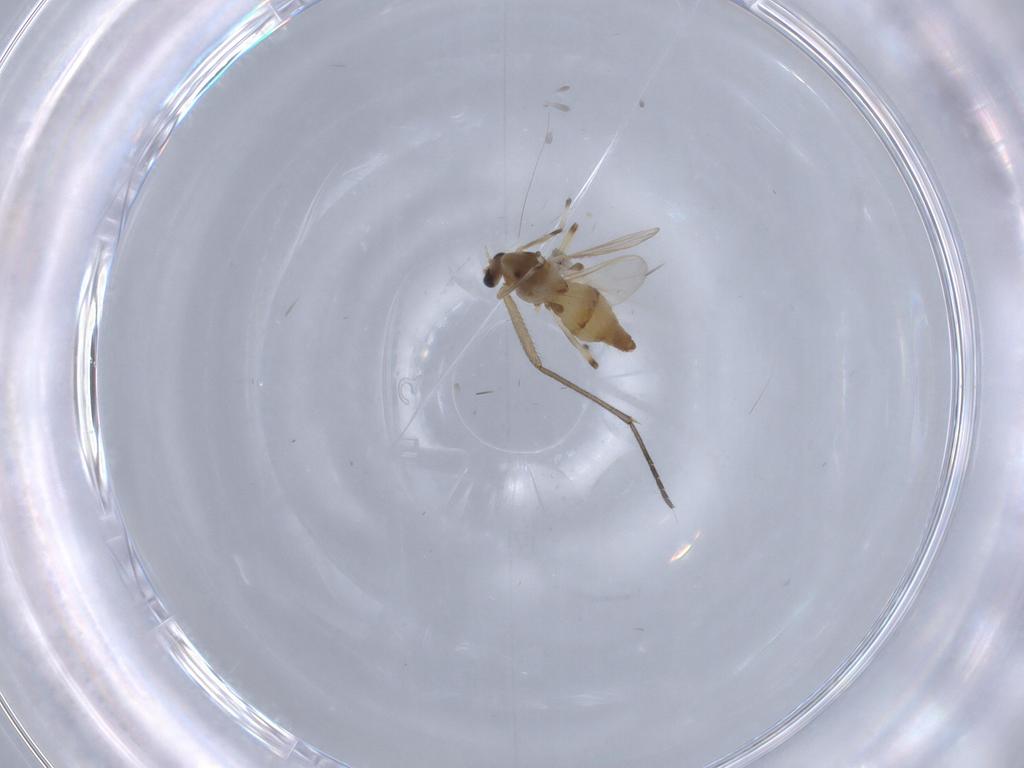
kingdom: Animalia
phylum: Arthropoda
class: Insecta
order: Diptera
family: Chironomidae
